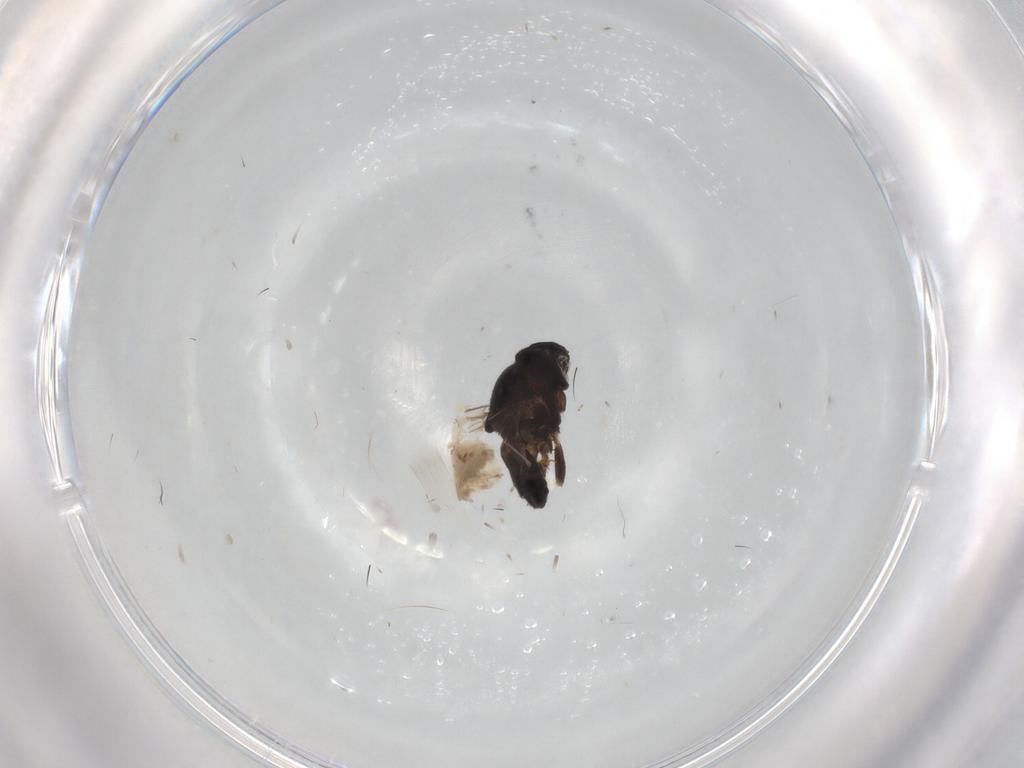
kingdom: Animalia
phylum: Arthropoda
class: Insecta
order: Diptera
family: Chloropidae
